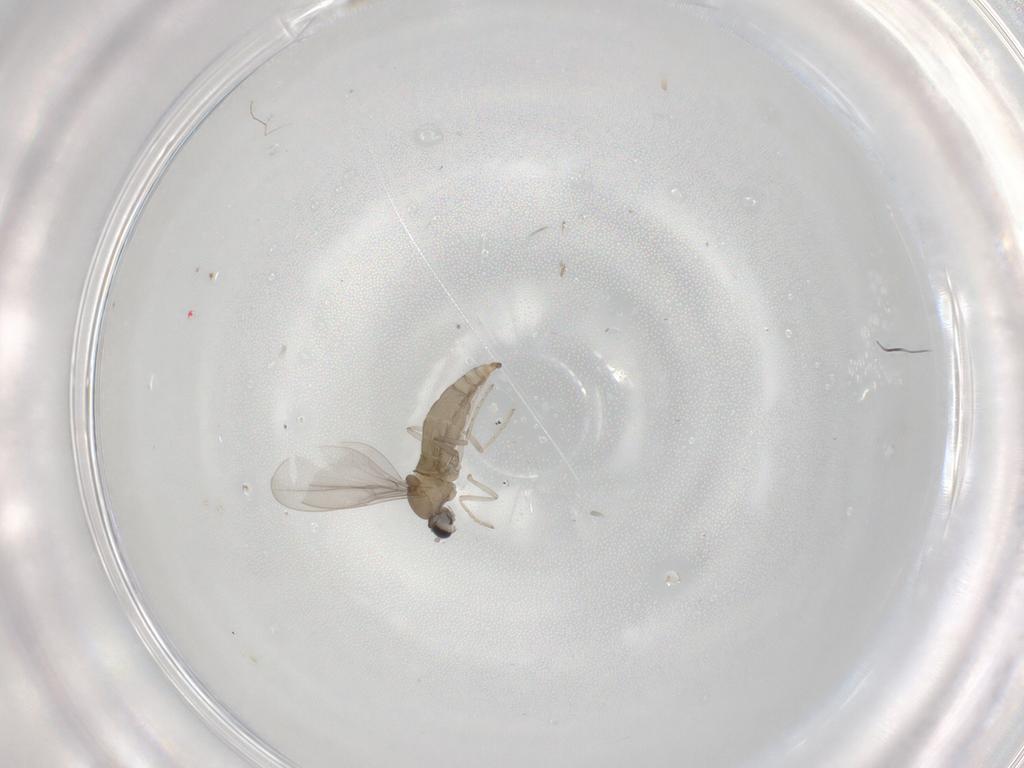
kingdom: Animalia
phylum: Arthropoda
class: Insecta
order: Diptera
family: Cecidomyiidae
